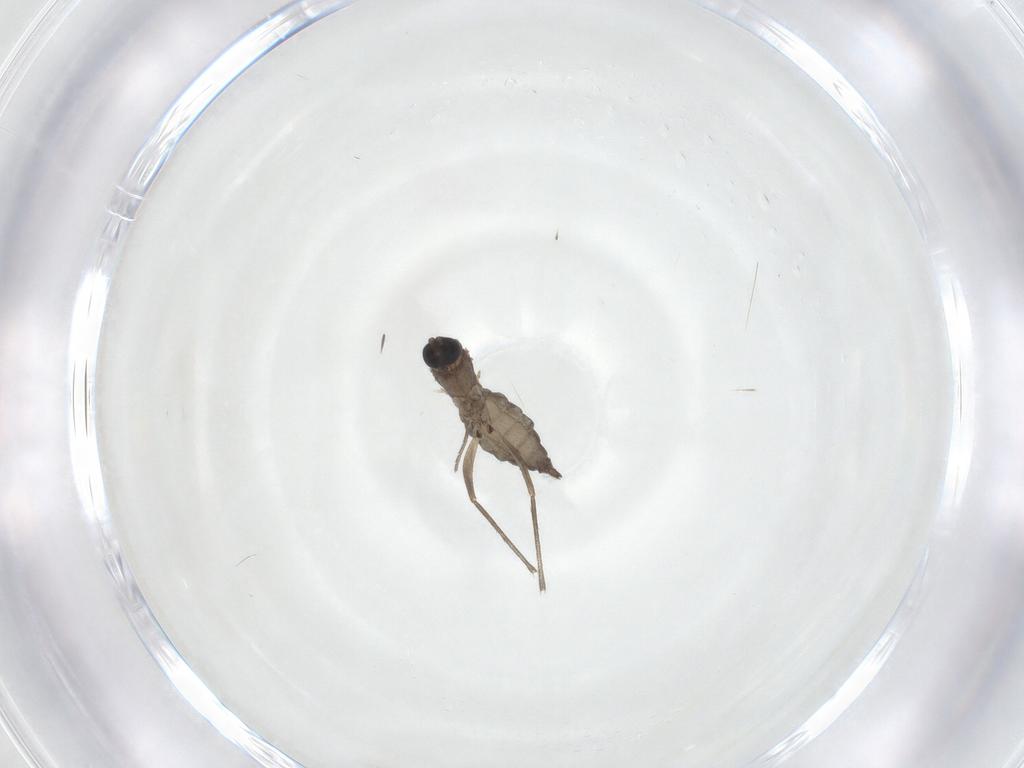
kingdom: Animalia
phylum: Arthropoda
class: Insecta
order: Diptera
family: Sciaridae
